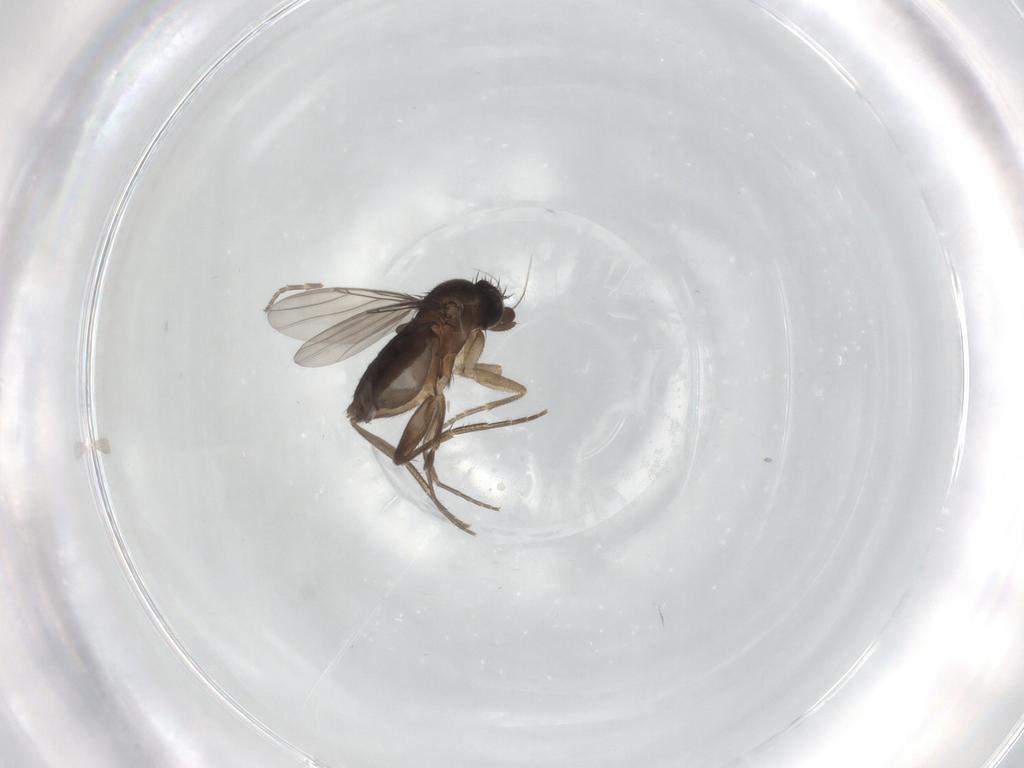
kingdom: Animalia
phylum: Arthropoda
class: Insecta
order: Diptera
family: Phoridae
